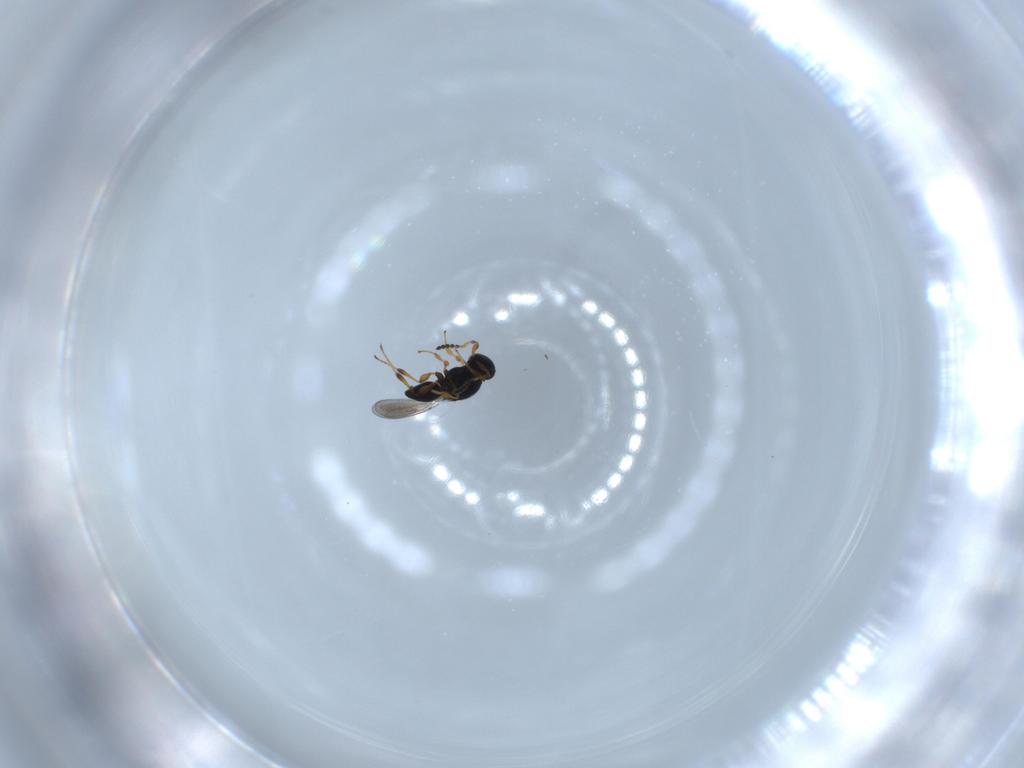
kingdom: Animalia
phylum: Arthropoda
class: Insecta
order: Hymenoptera
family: Platygastridae
